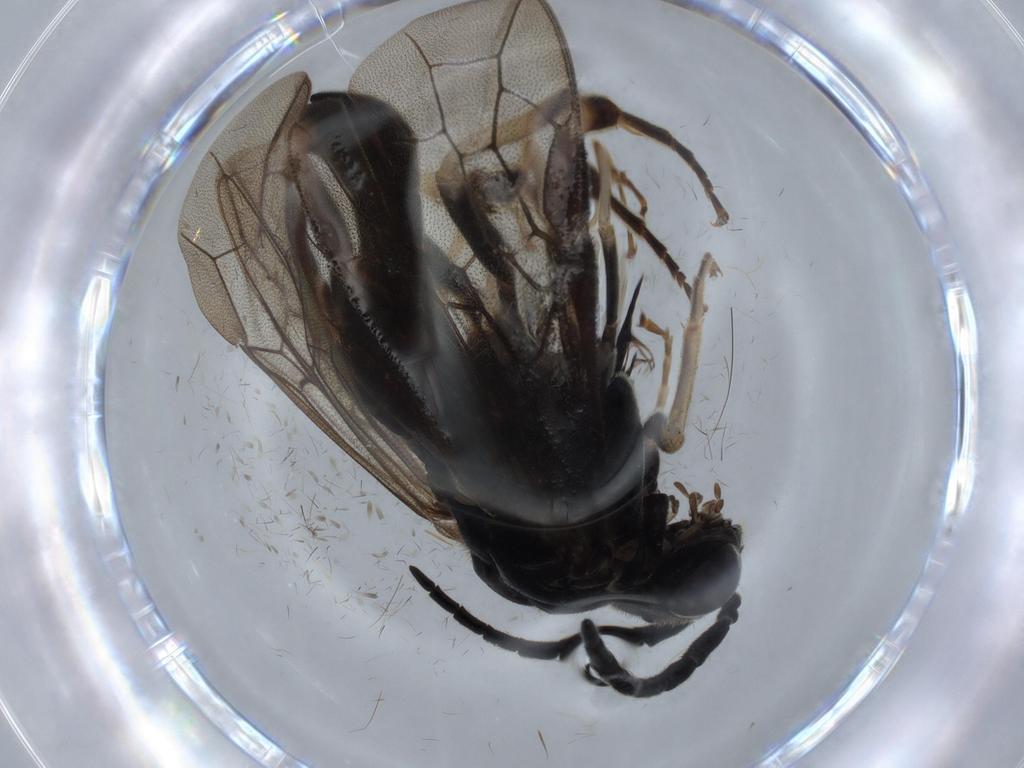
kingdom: Animalia
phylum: Arthropoda
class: Insecta
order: Hymenoptera
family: Tenthredinidae
